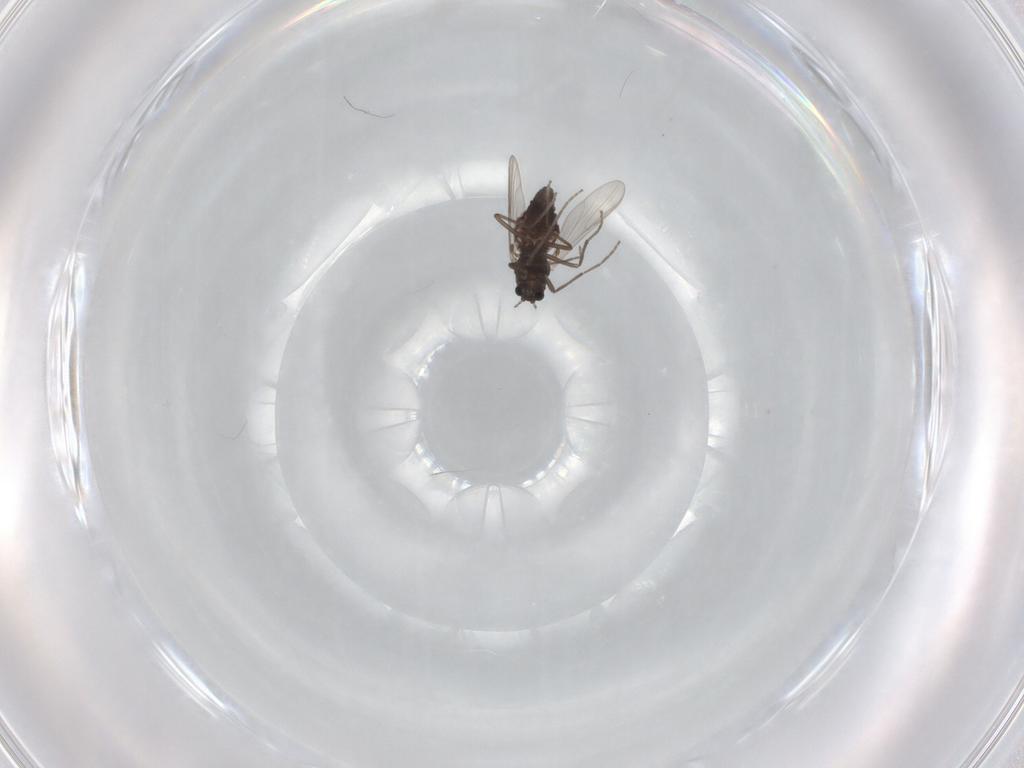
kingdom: Animalia
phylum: Arthropoda
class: Insecta
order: Diptera
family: Chironomidae
